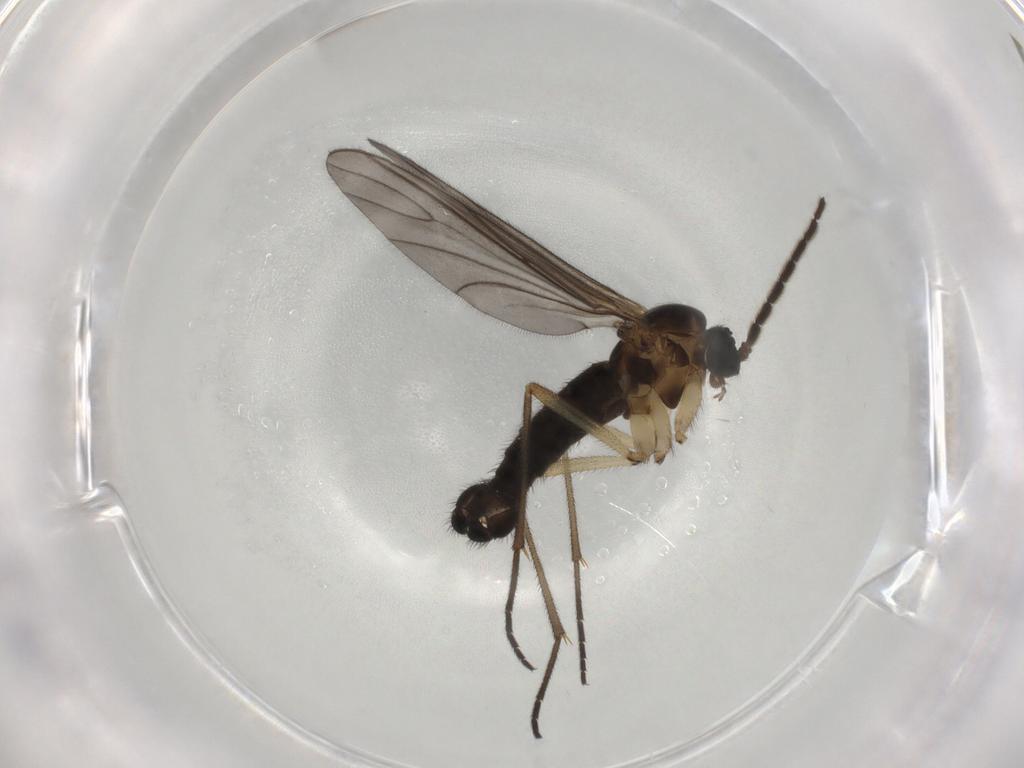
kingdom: Animalia
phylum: Arthropoda
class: Insecta
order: Diptera
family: Sciaridae
